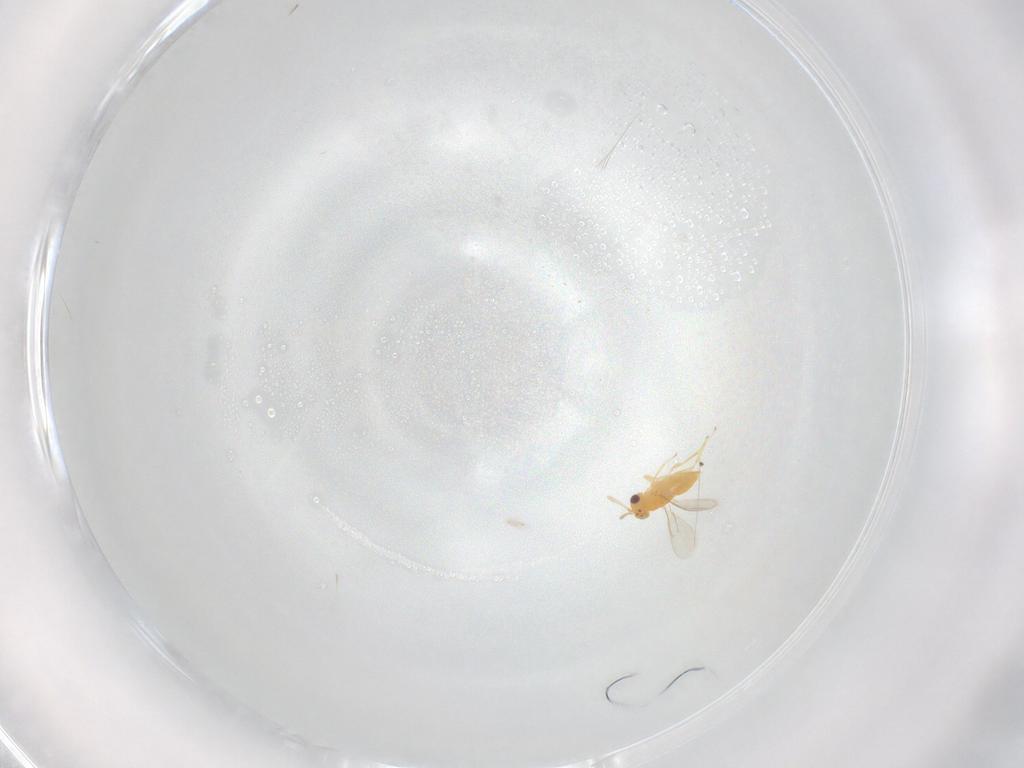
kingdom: Animalia
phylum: Arthropoda
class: Insecta
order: Hymenoptera
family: Aphelinidae
